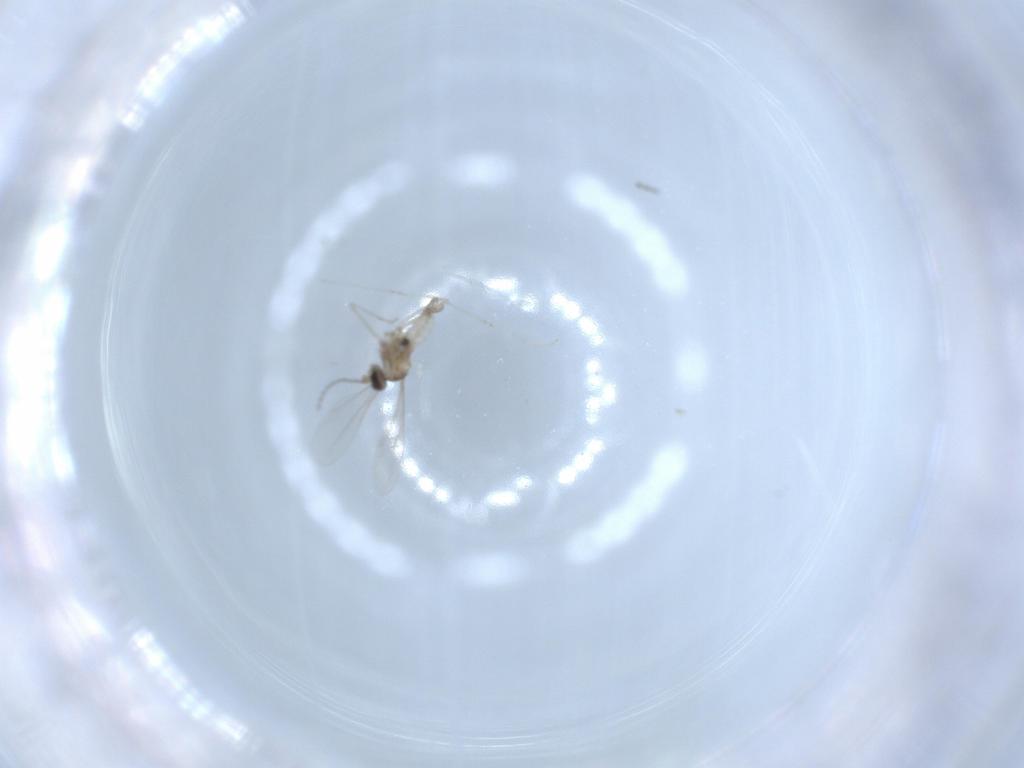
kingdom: Animalia
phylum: Arthropoda
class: Insecta
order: Diptera
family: Cecidomyiidae
